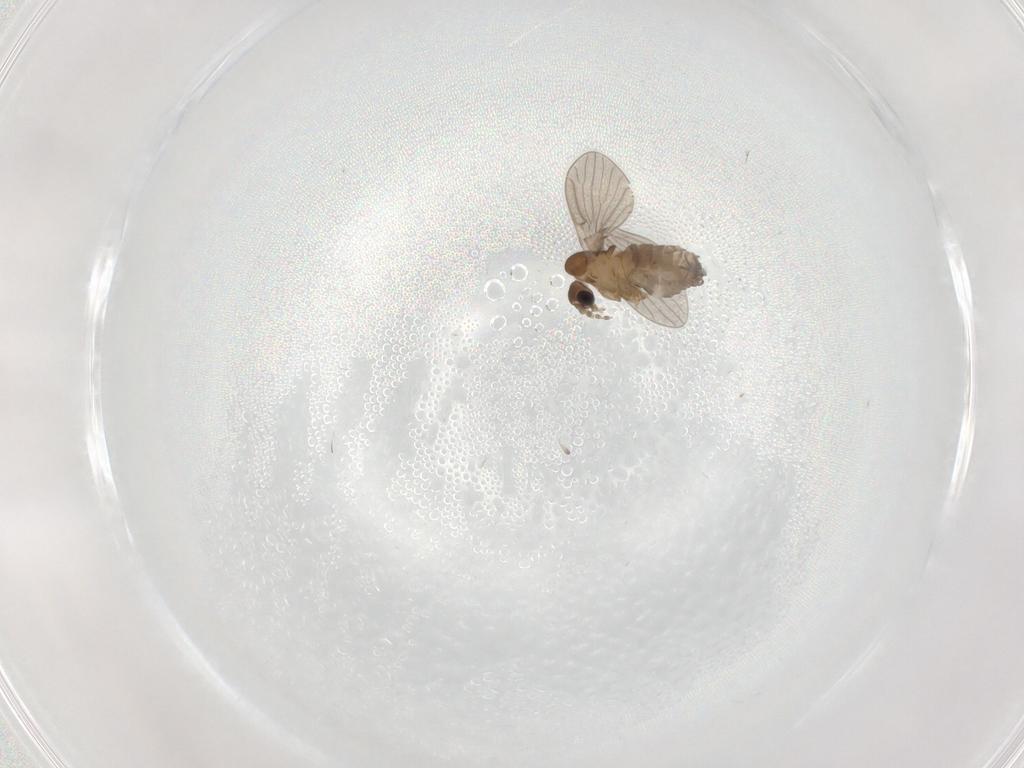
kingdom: Animalia
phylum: Arthropoda
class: Insecta
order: Diptera
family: Phoridae
